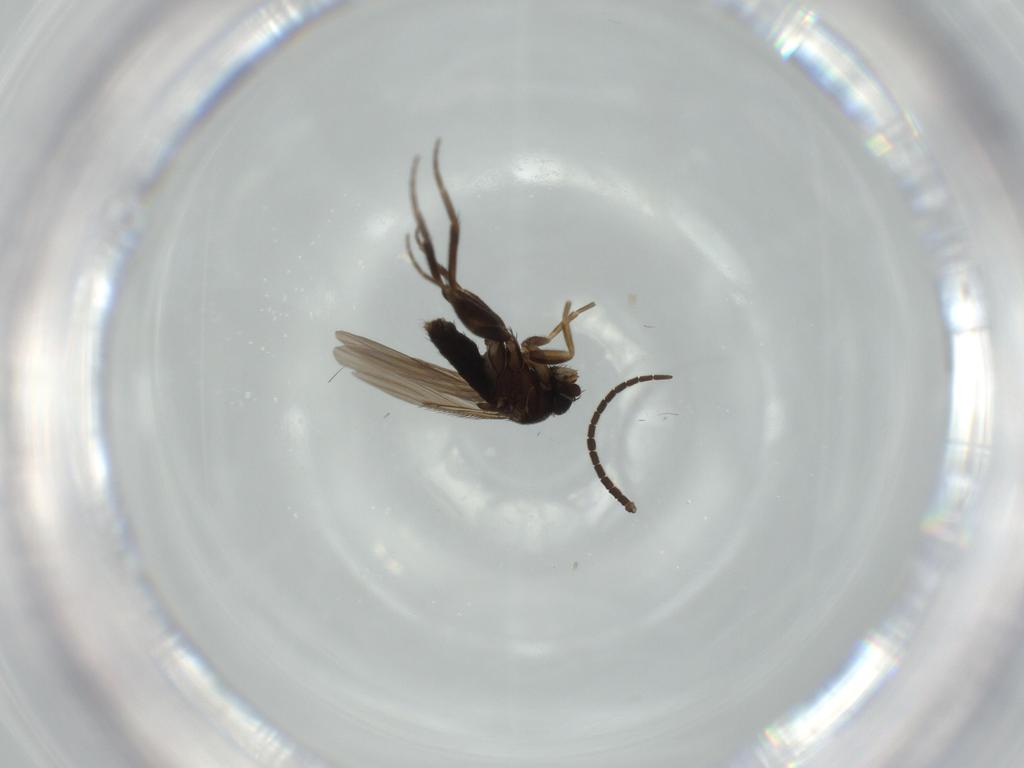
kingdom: Animalia
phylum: Arthropoda
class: Insecta
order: Diptera
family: Phoridae
